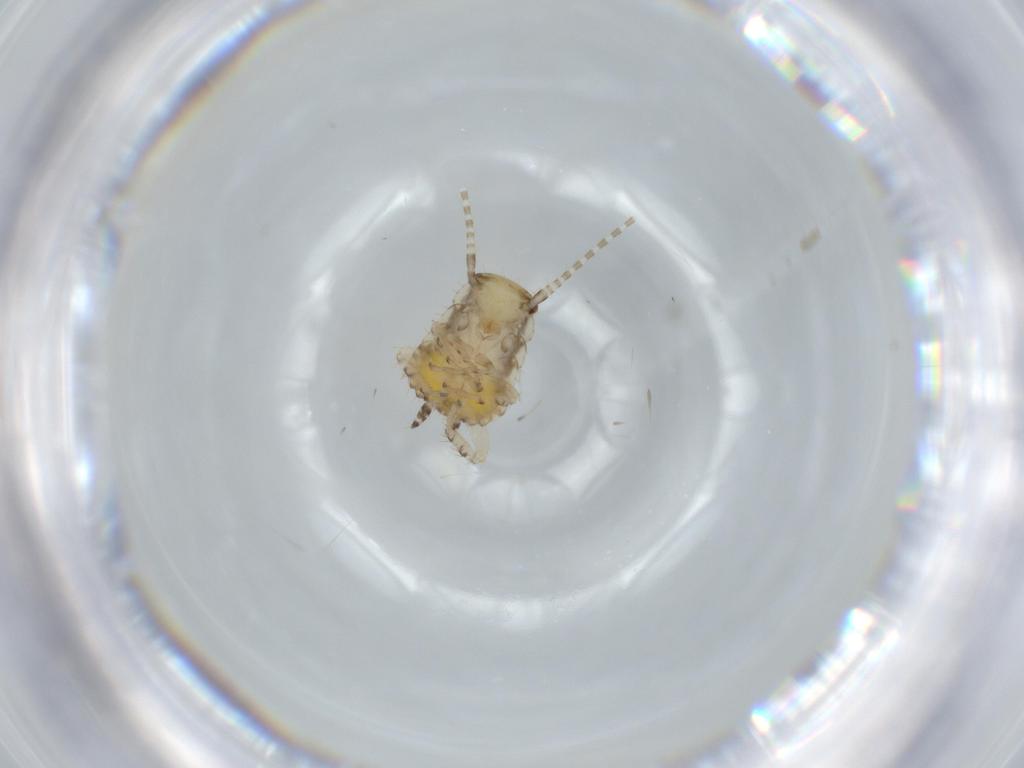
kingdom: Animalia
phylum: Arthropoda
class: Insecta
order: Blattodea
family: Ectobiidae
